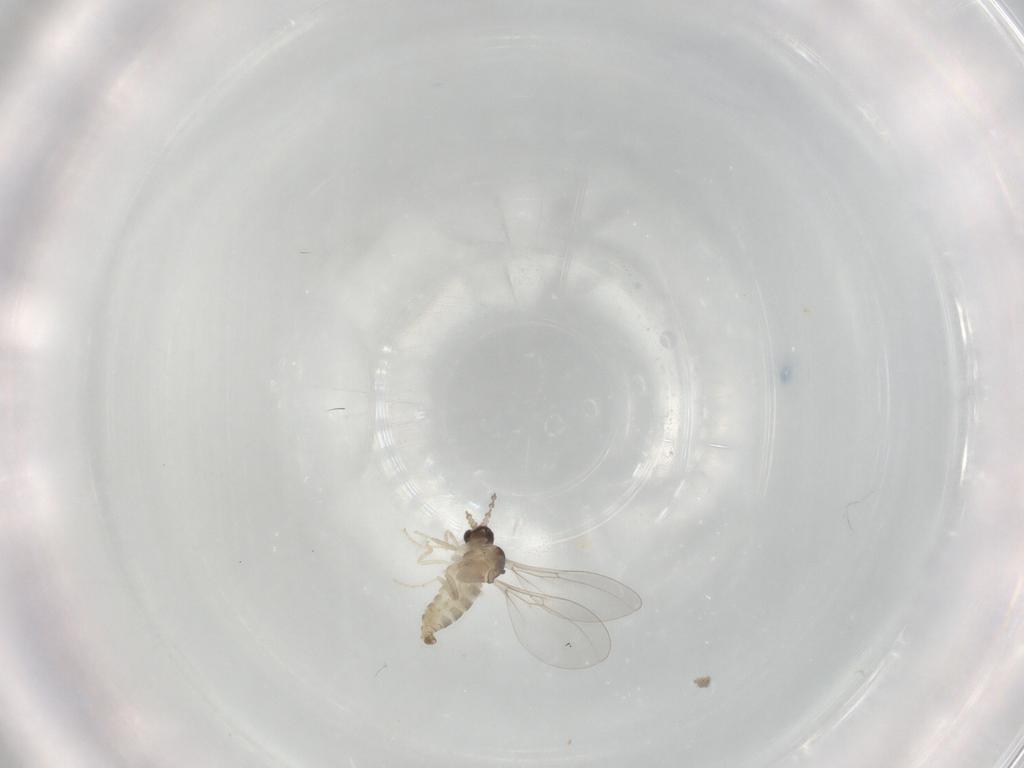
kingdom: Animalia
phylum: Arthropoda
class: Insecta
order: Diptera
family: Cecidomyiidae
